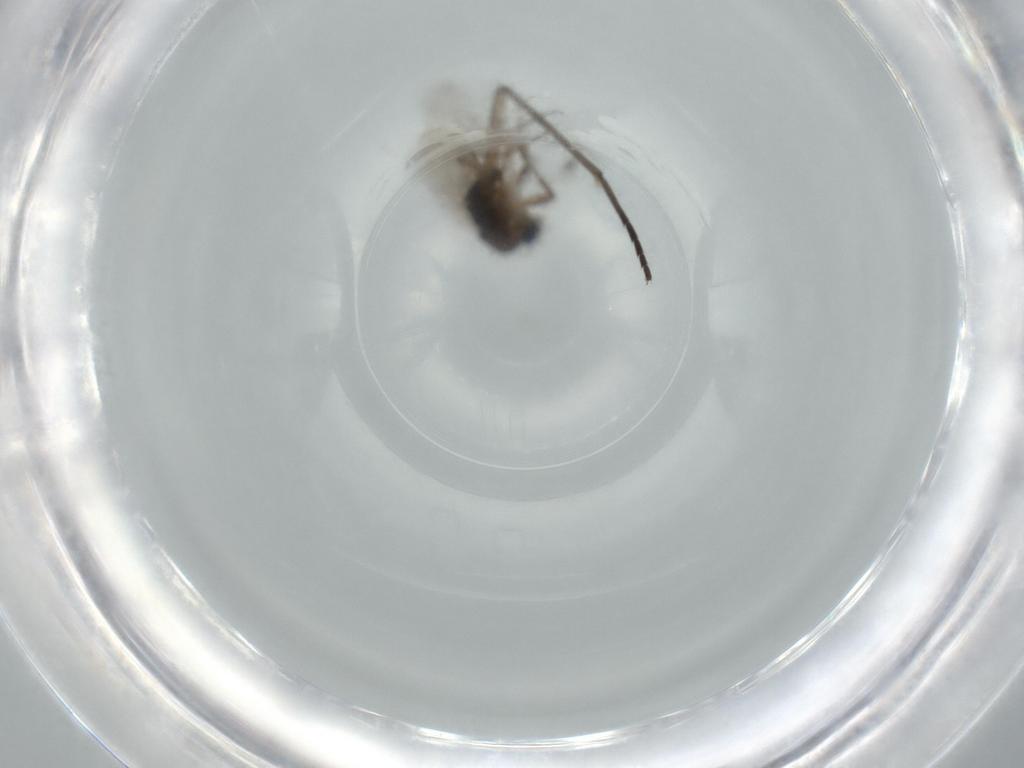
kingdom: Animalia
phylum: Arthropoda
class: Insecta
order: Diptera
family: Phoridae
